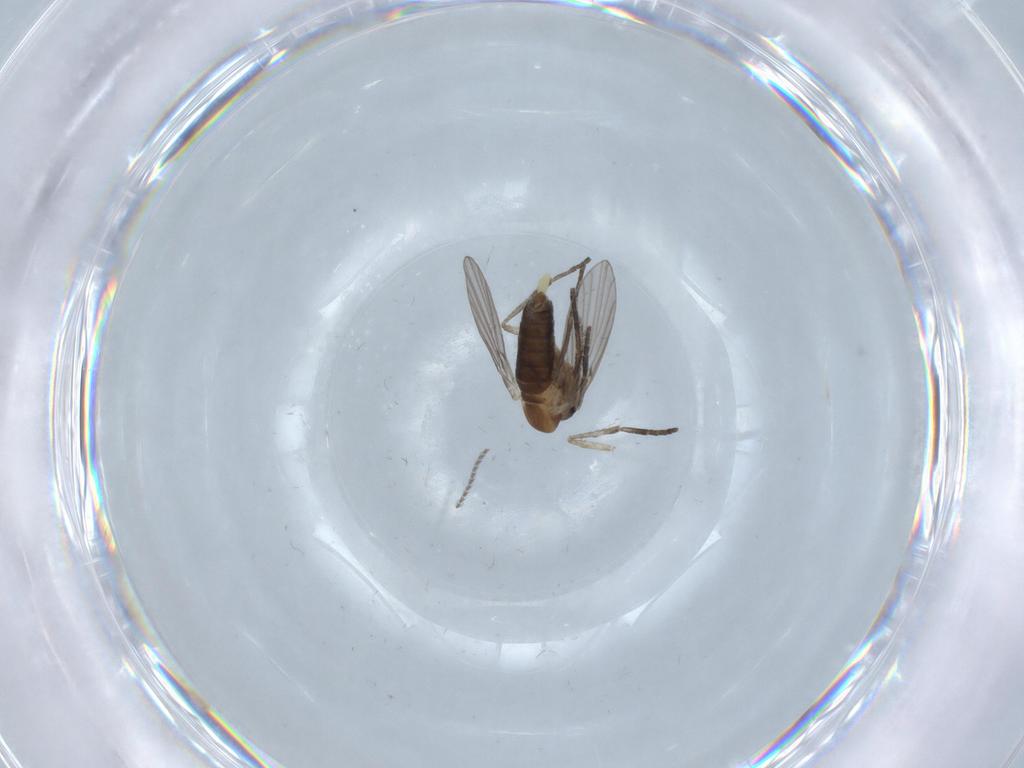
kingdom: Animalia
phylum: Arthropoda
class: Insecta
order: Diptera
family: Psychodidae
